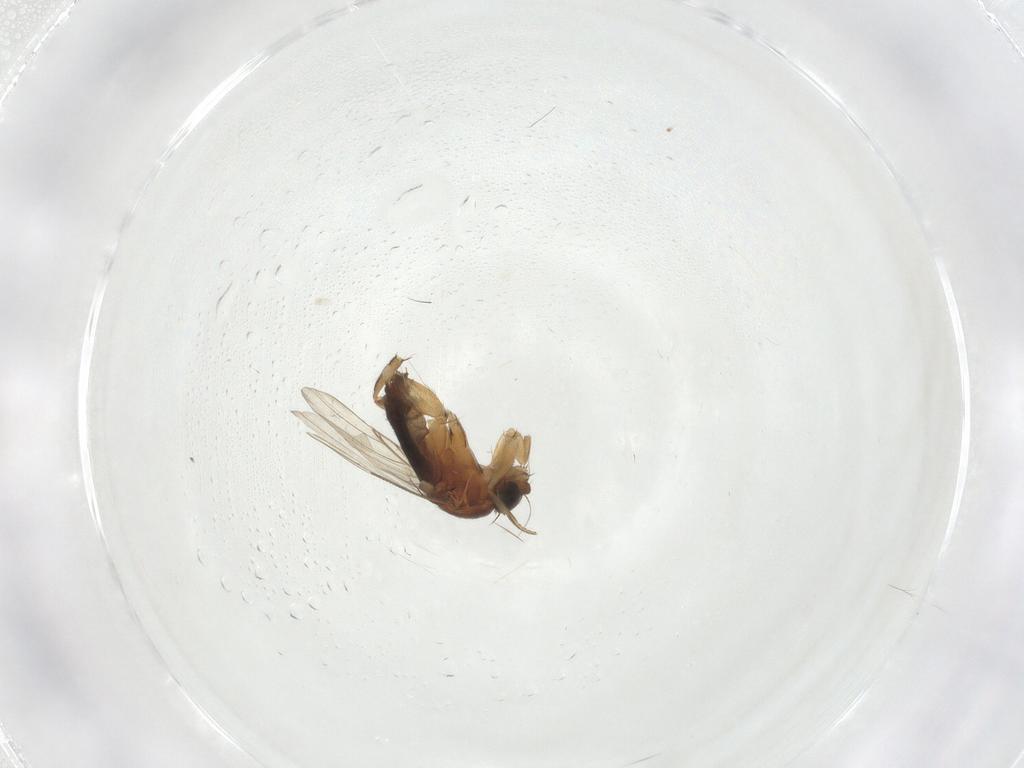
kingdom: Animalia
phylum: Arthropoda
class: Insecta
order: Diptera
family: Phoridae
